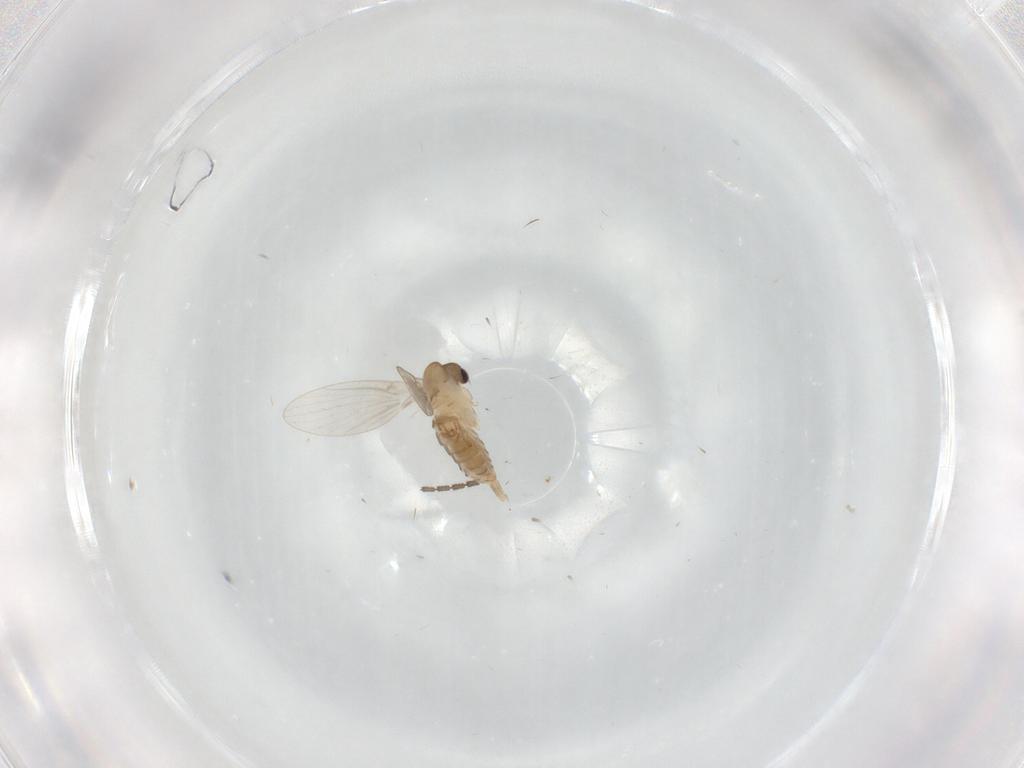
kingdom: Animalia
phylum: Arthropoda
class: Insecta
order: Diptera
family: Sciaridae
